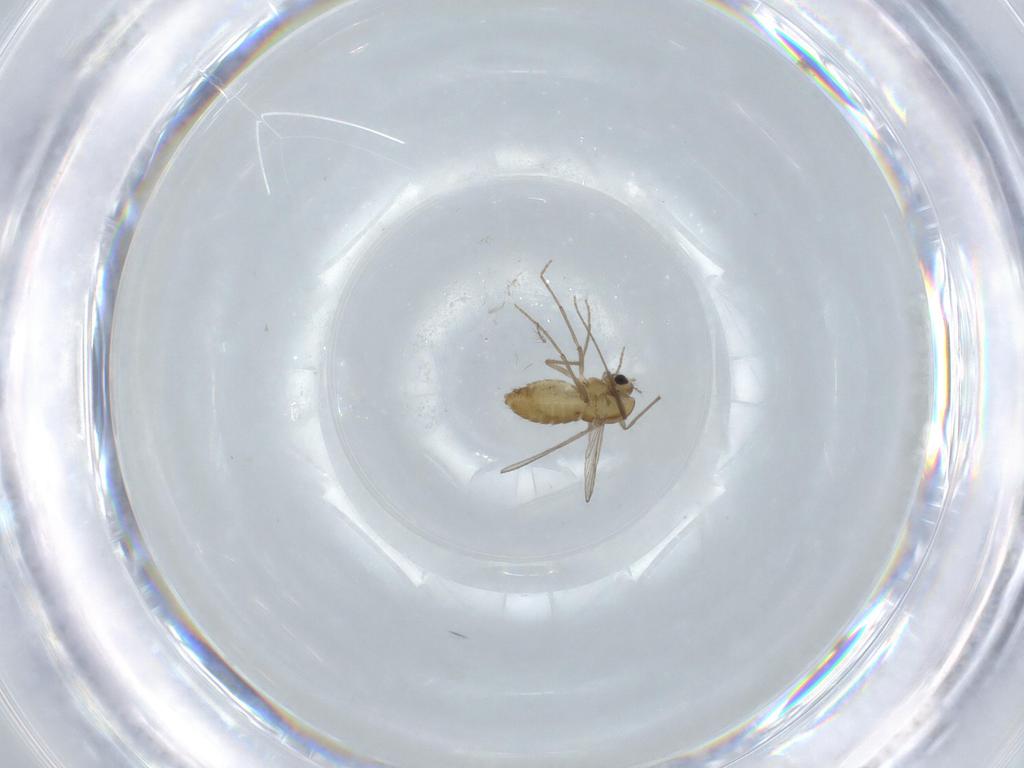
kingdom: Animalia
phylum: Arthropoda
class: Insecta
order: Diptera
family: Chironomidae
